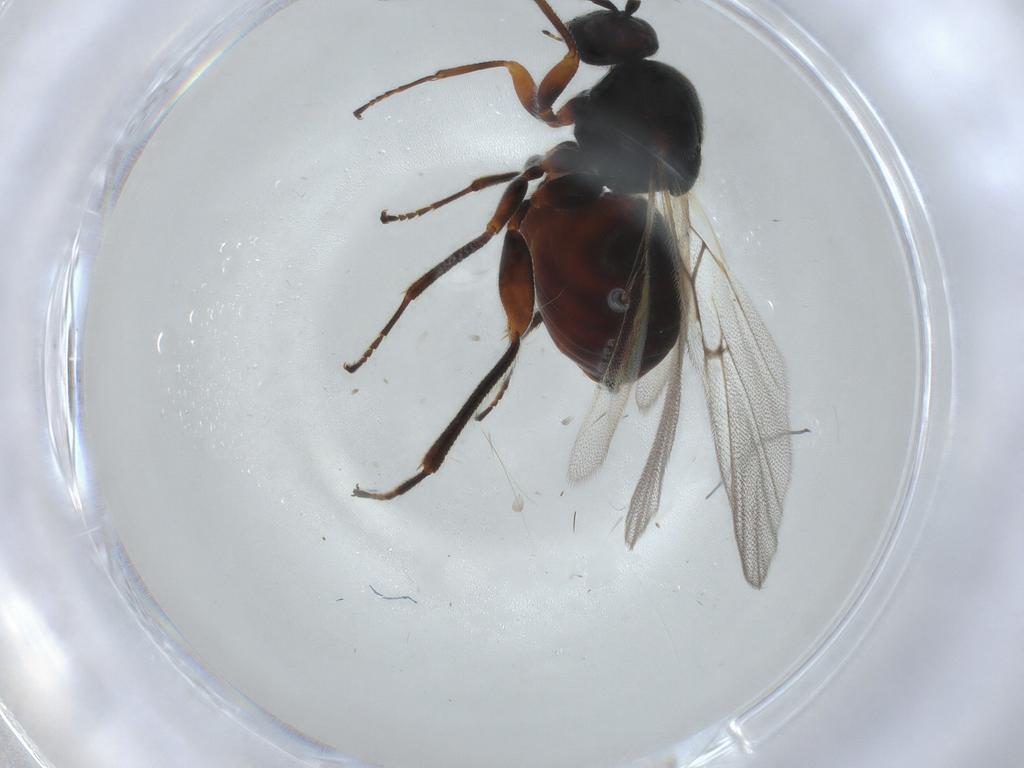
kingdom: Animalia
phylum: Arthropoda
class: Insecta
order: Hymenoptera
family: Cynipidae
